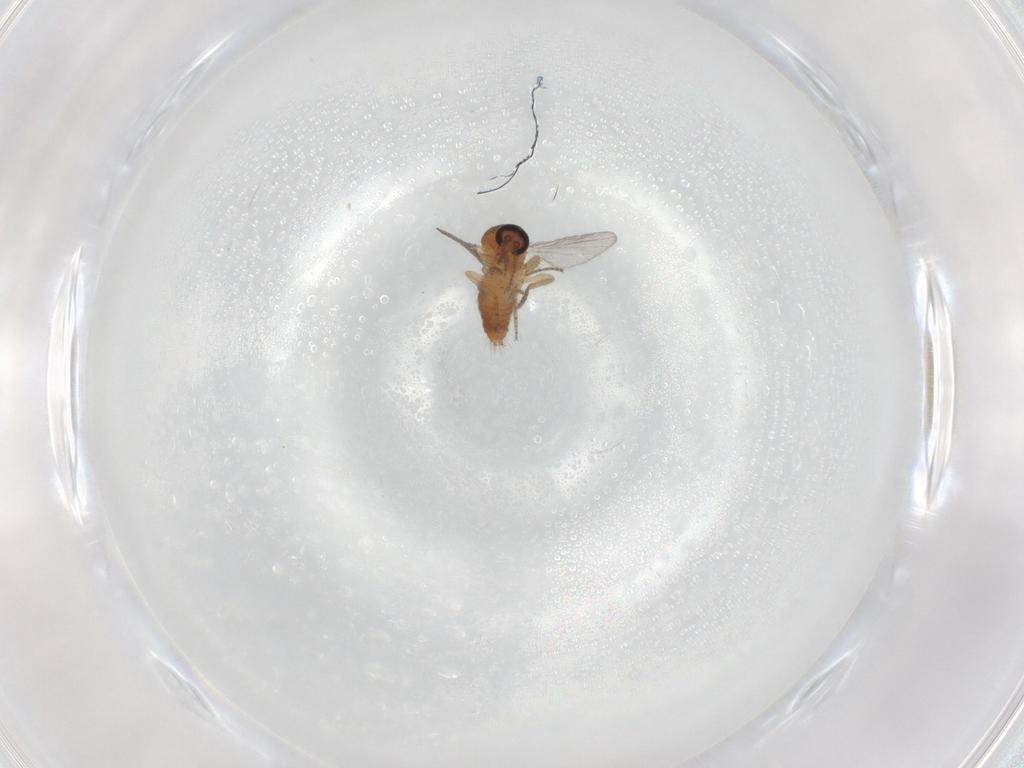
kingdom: Animalia
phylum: Arthropoda
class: Insecta
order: Diptera
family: Ceratopogonidae
